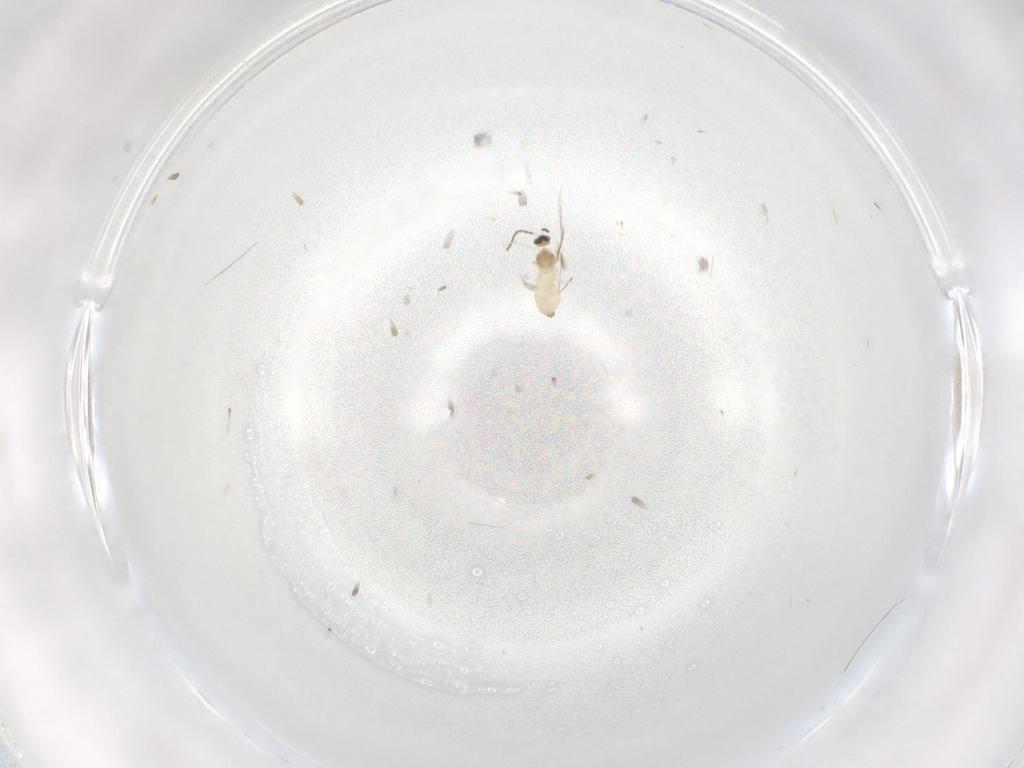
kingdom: Animalia
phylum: Arthropoda
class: Insecta
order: Diptera
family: Cecidomyiidae
